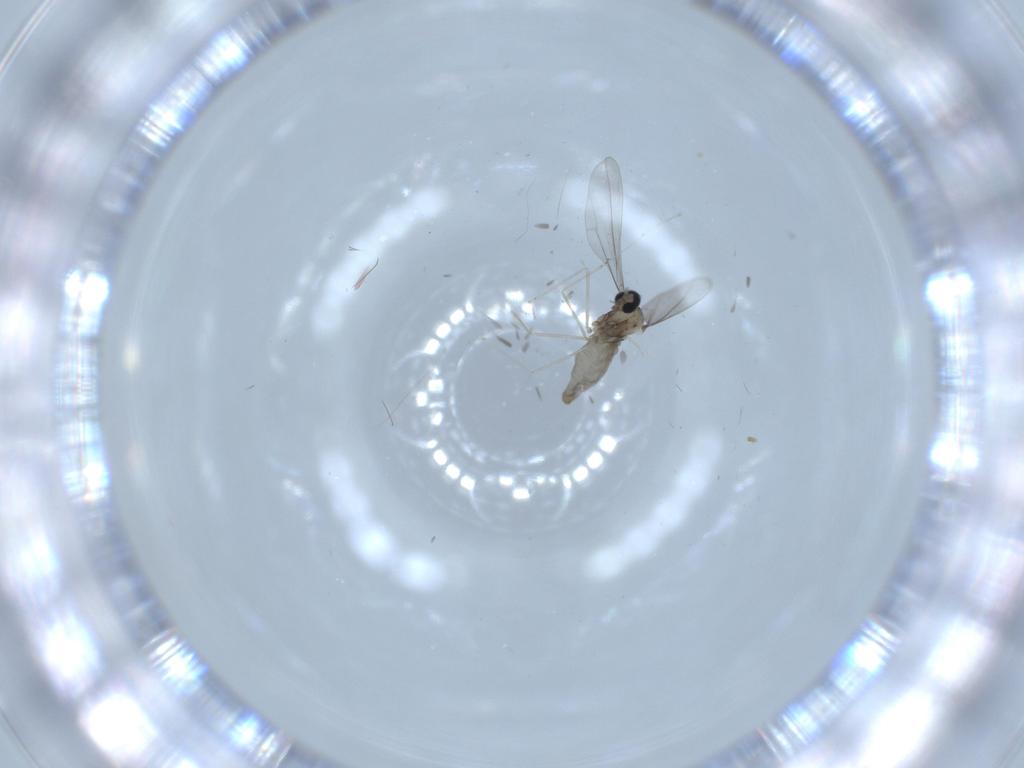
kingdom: Animalia
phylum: Arthropoda
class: Insecta
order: Diptera
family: Cecidomyiidae
